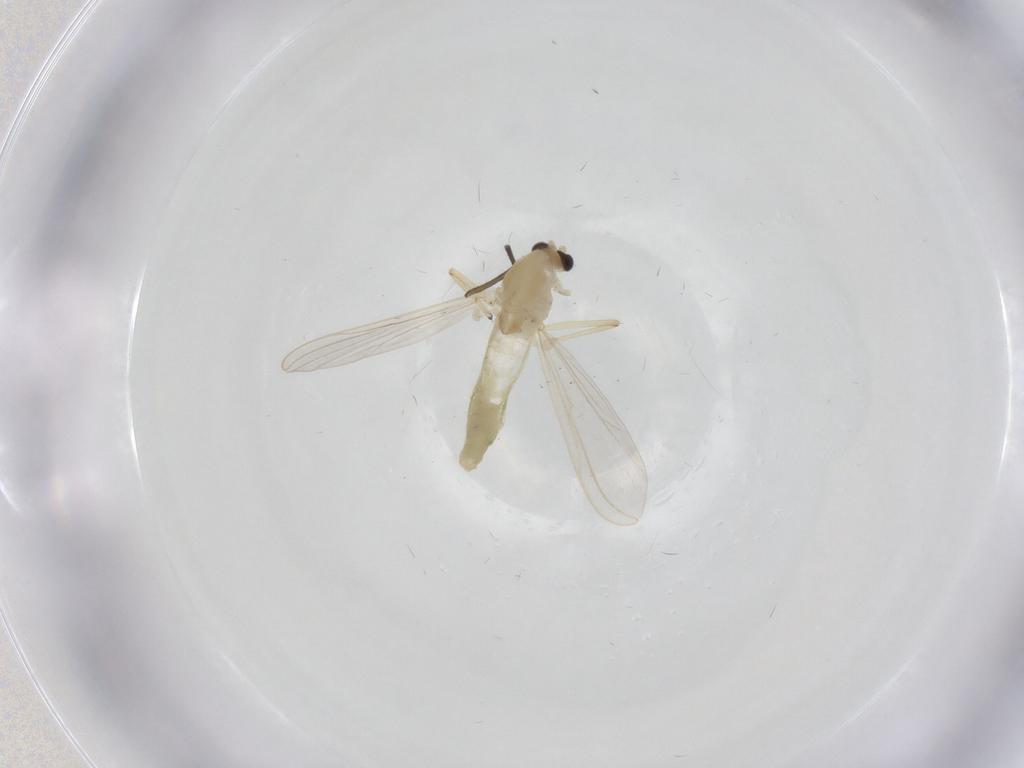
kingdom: Animalia
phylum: Arthropoda
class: Insecta
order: Diptera
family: Chironomidae
